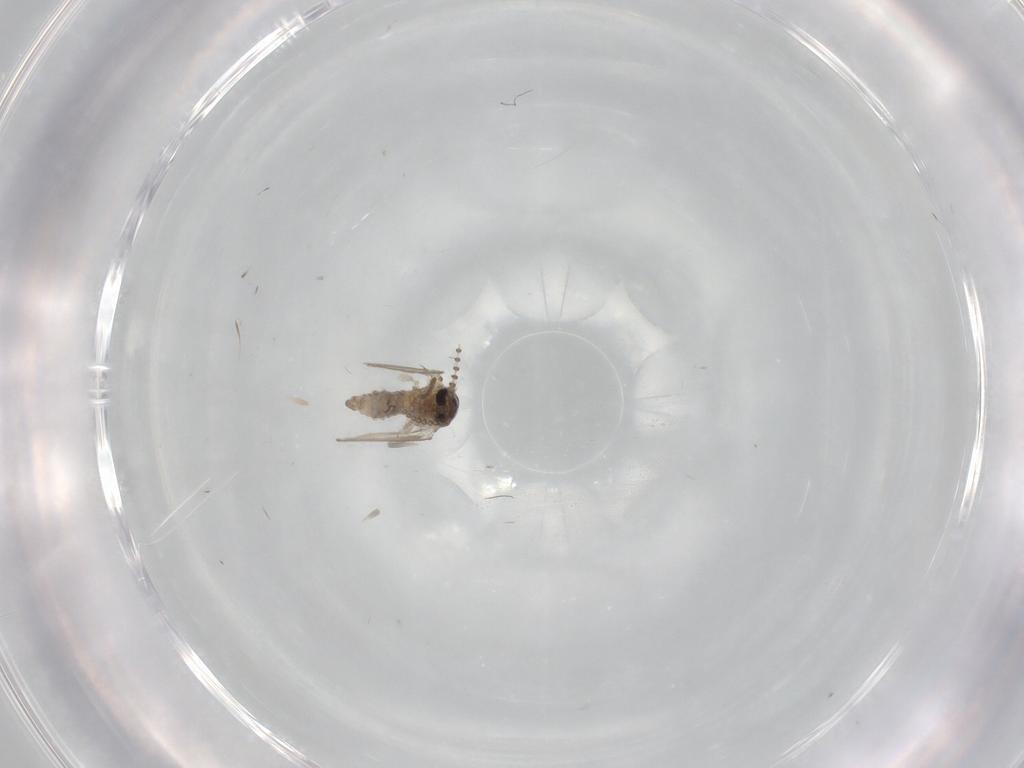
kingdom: Animalia
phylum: Arthropoda
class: Insecta
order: Diptera
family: Psychodidae
